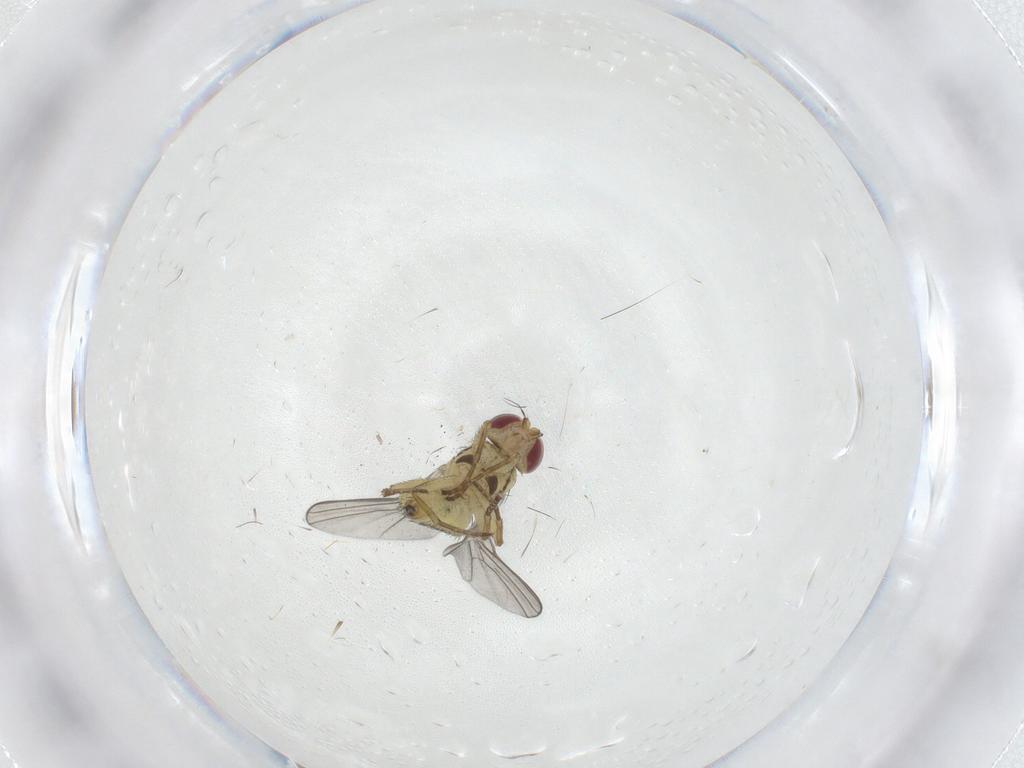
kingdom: Animalia
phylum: Arthropoda
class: Insecta
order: Diptera
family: Agromyzidae
